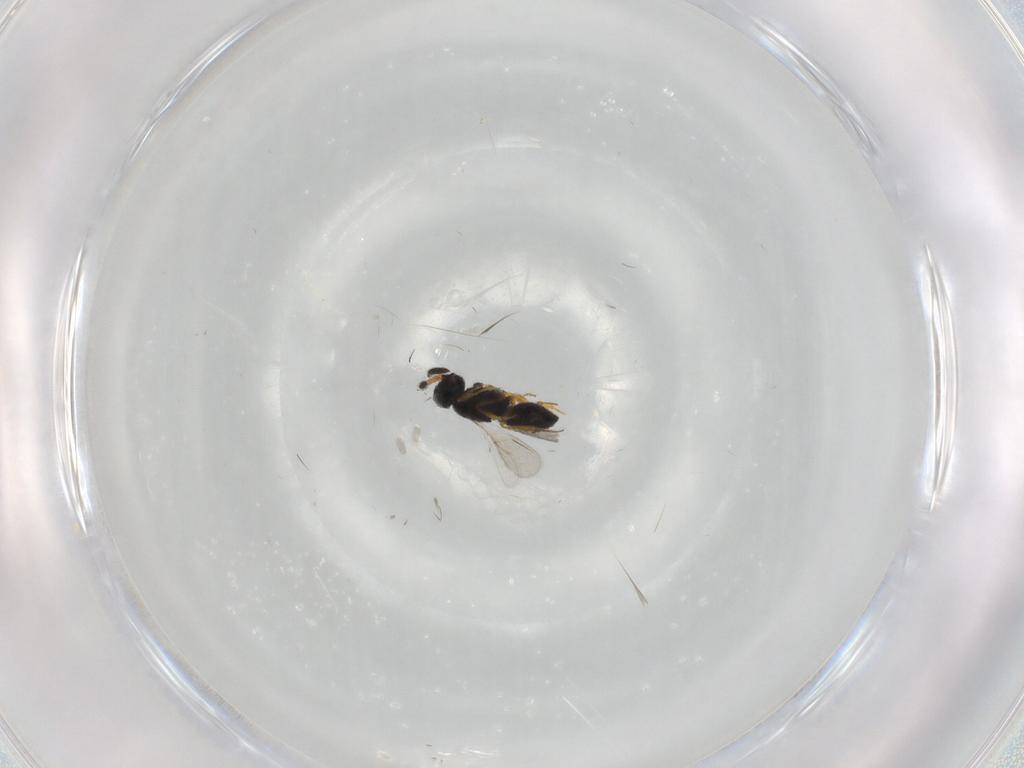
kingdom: Animalia
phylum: Arthropoda
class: Insecta
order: Hymenoptera
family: Scelionidae
